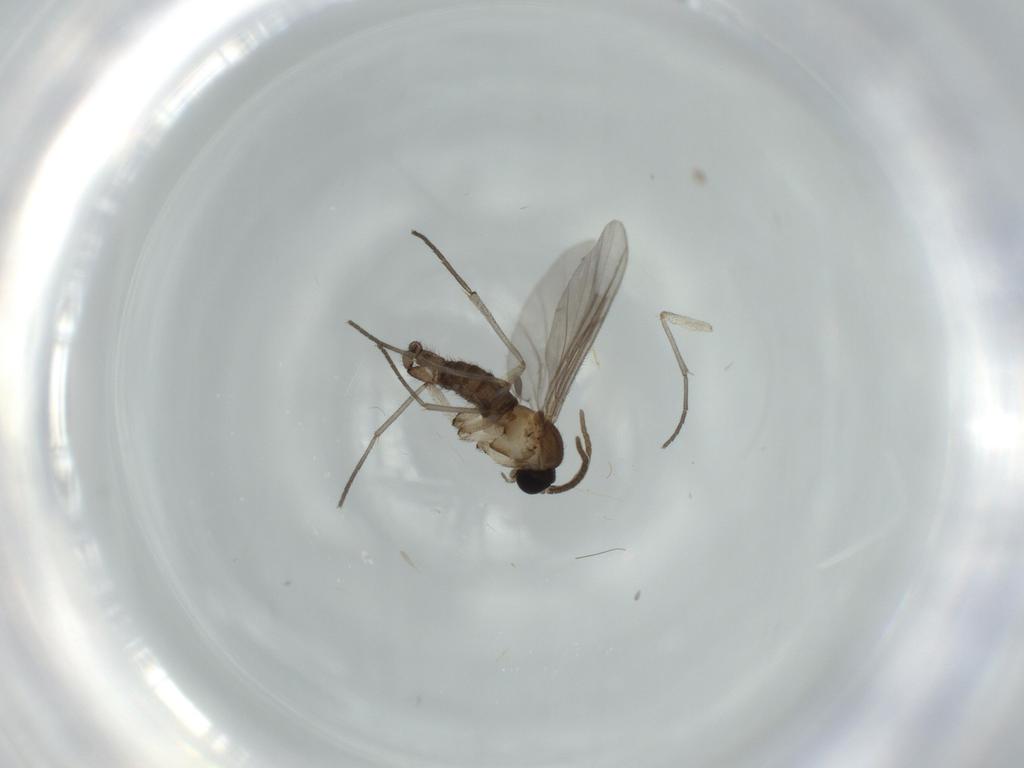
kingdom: Animalia
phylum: Arthropoda
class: Insecta
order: Diptera
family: Sciaridae
